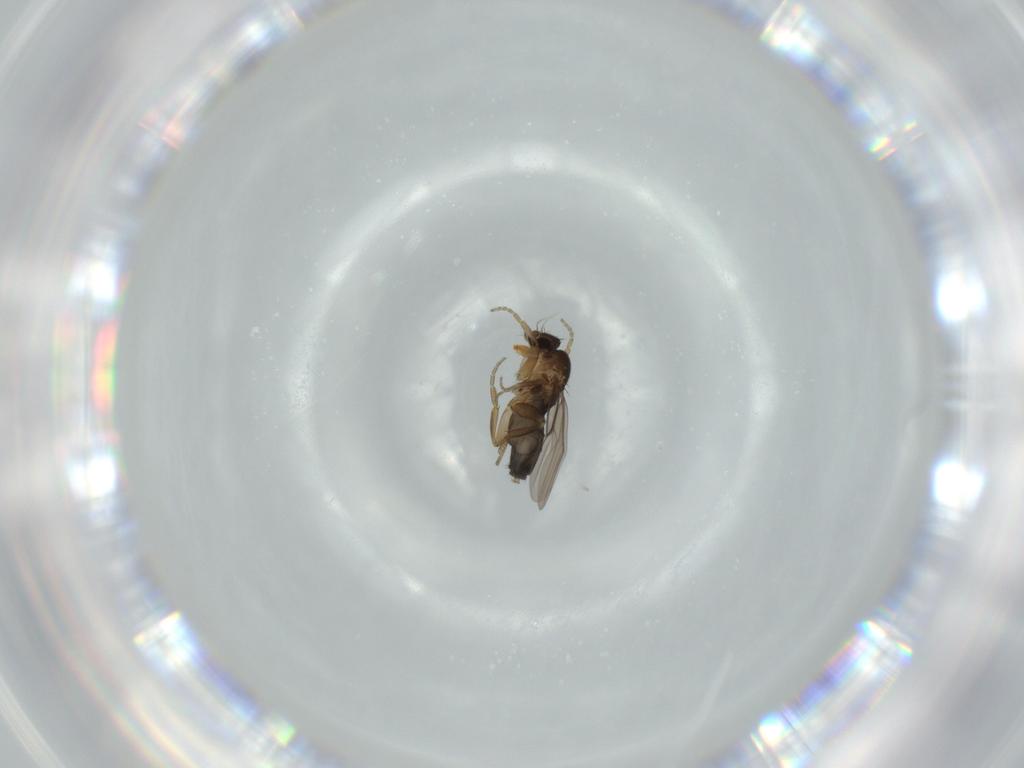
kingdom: Animalia
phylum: Arthropoda
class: Insecta
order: Diptera
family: Phoridae
